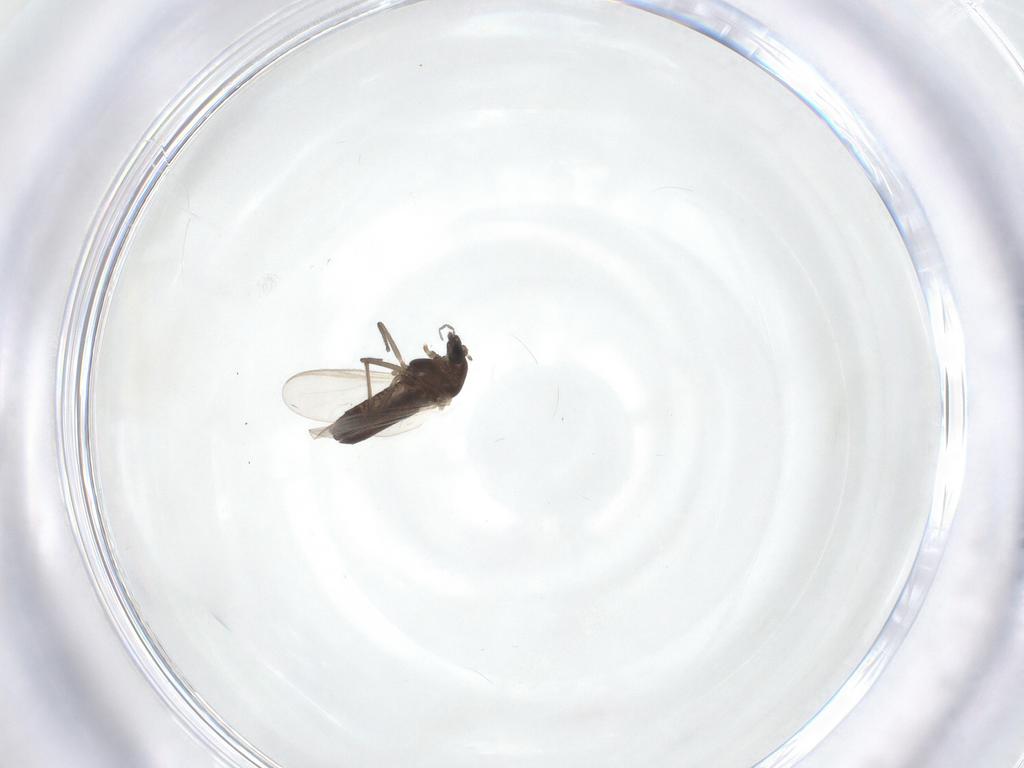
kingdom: Animalia
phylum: Arthropoda
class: Insecta
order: Diptera
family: Chironomidae
